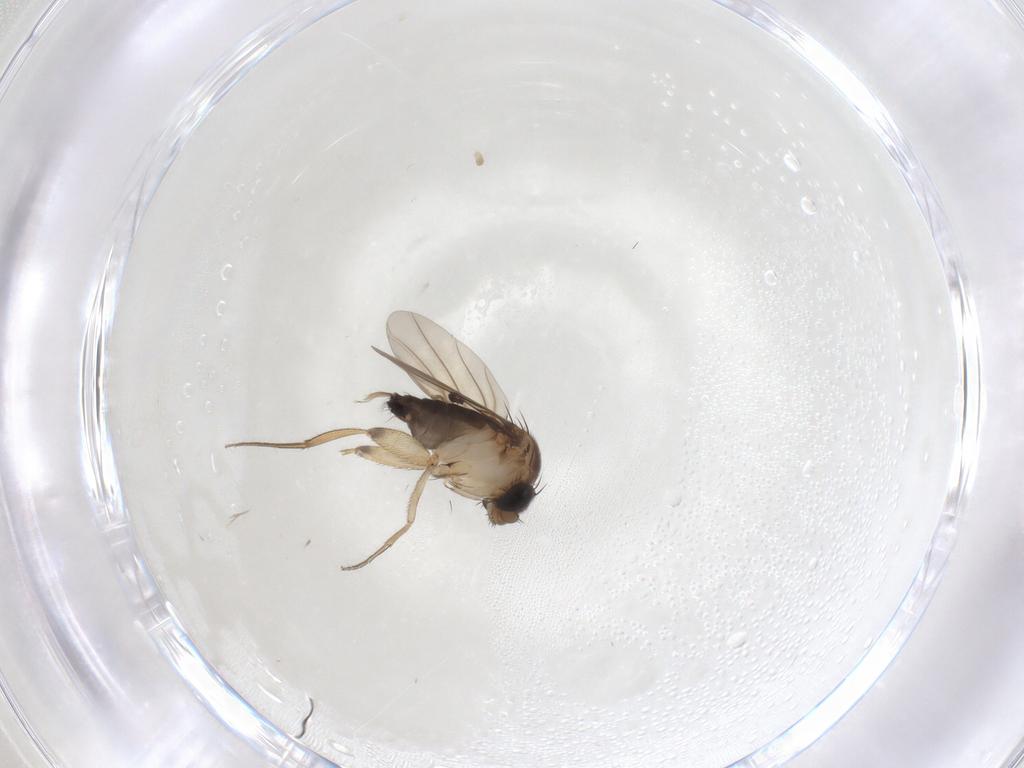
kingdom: Animalia
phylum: Arthropoda
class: Insecta
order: Diptera
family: Phoridae
